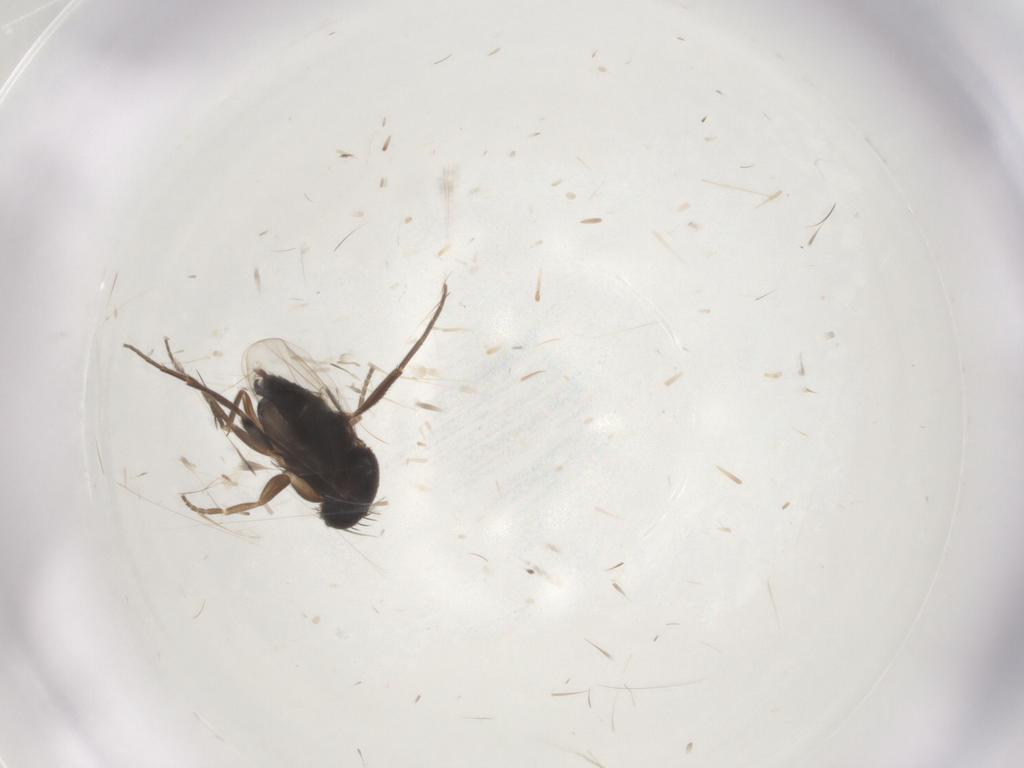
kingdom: Animalia
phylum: Arthropoda
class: Insecta
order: Diptera
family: Phoridae
